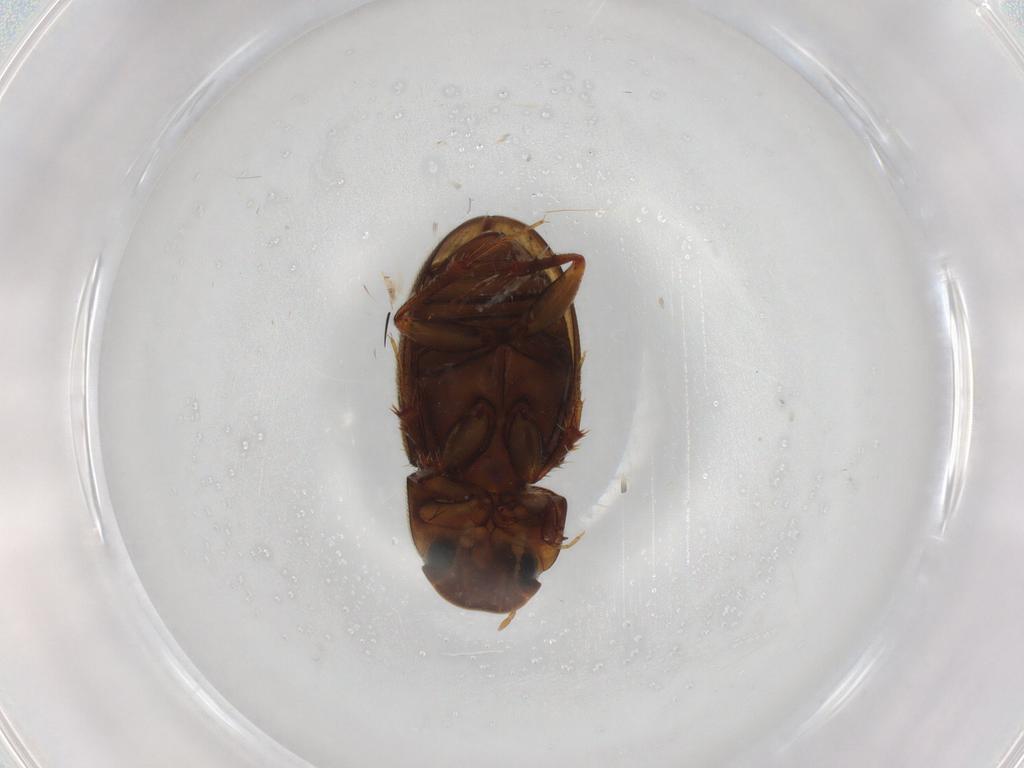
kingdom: Animalia
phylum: Arthropoda
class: Insecta
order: Coleoptera
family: Scarabaeidae
